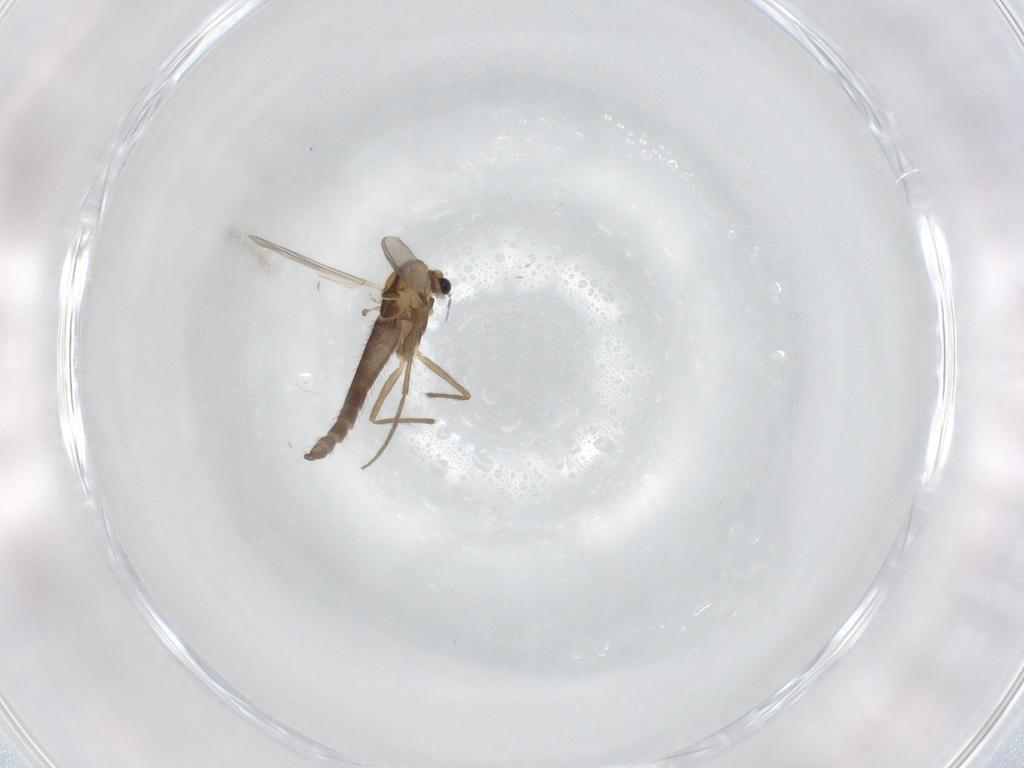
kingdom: Animalia
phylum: Arthropoda
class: Insecta
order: Diptera
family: Chironomidae
